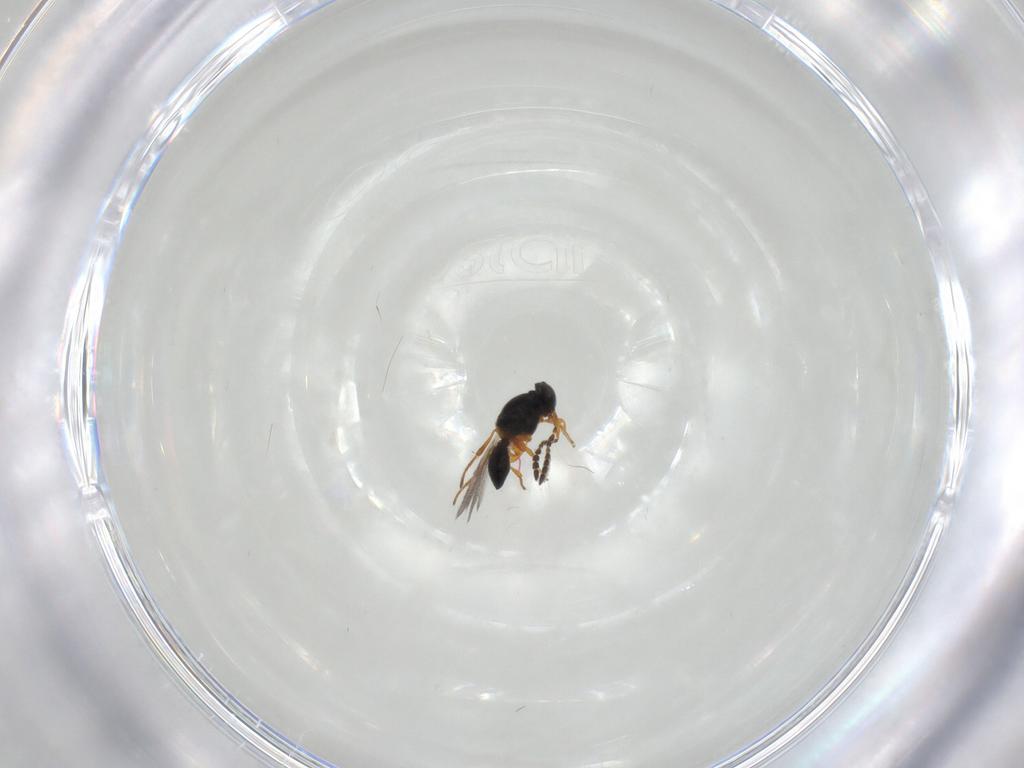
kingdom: Animalia
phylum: Arthropoda
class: Insecta
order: Hymenoptera
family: Platygastridae
